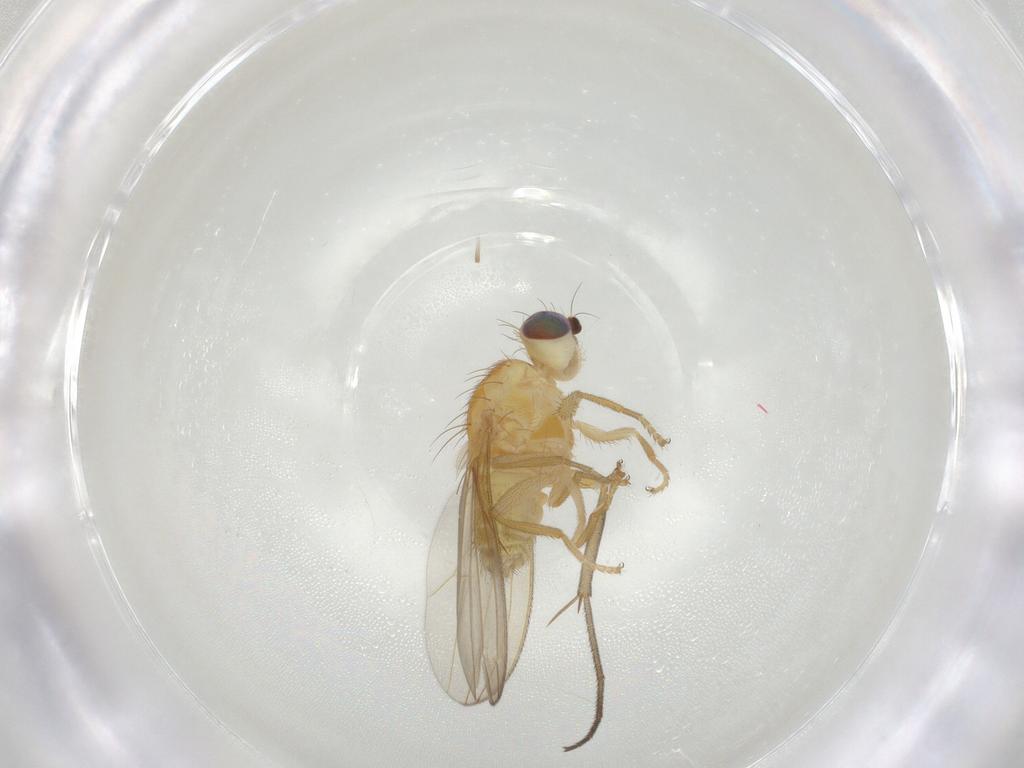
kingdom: Animalia
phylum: Arthropoda
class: Insecta
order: Diptera
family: Chyromyidae
